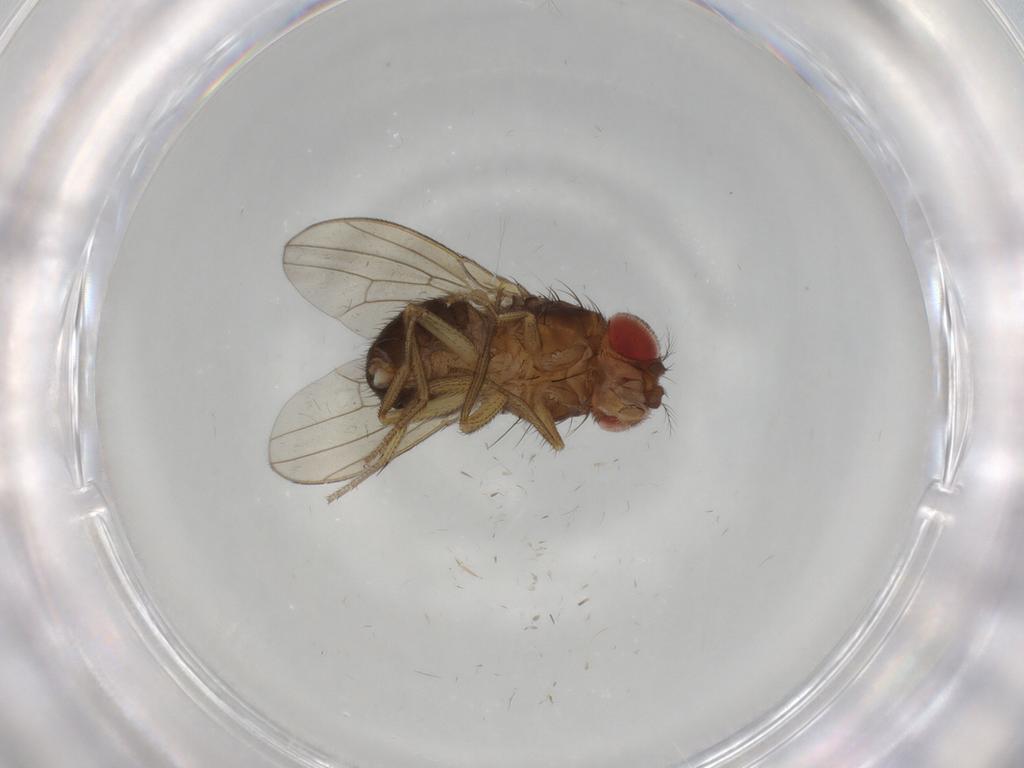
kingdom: Animalia
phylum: Arthropoda
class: Insecta
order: Diptera
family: Drosophilidae
